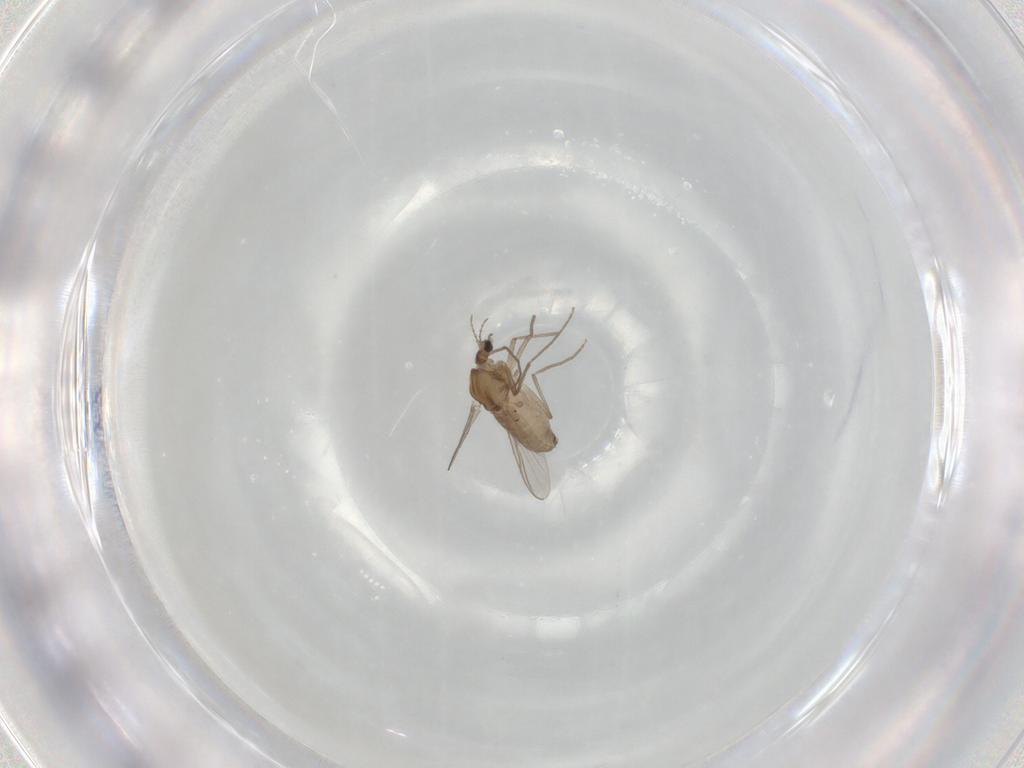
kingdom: Animalia
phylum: Arthropoda
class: Insecta
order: Diptera
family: Chironomidae
